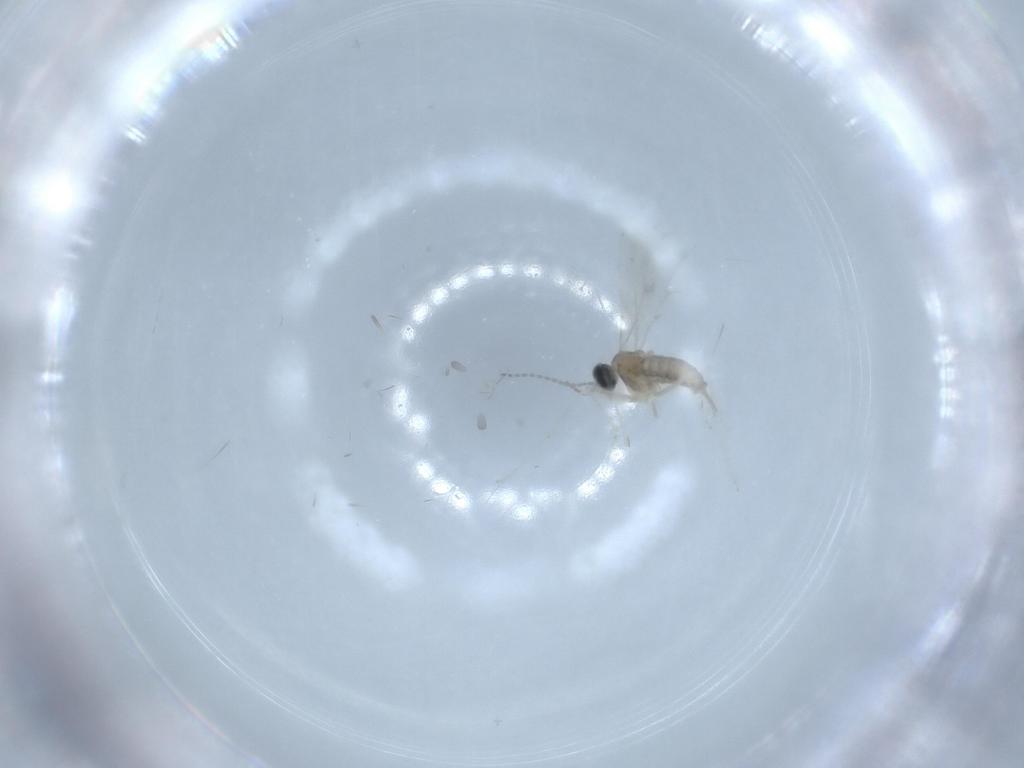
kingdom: Animalia
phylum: Arthropoda
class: Insecta
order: Diptera
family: Cecidomyiidae
